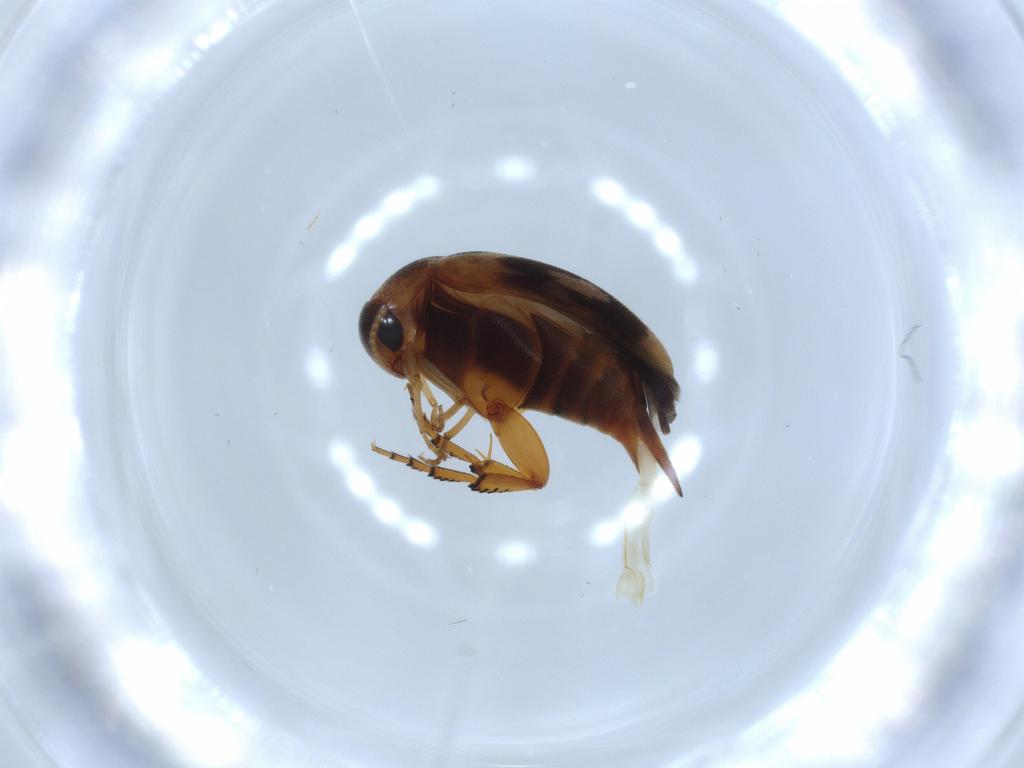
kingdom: Animalia
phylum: Arthropoda
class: Insecta
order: Coleoptera
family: Mordellidae
